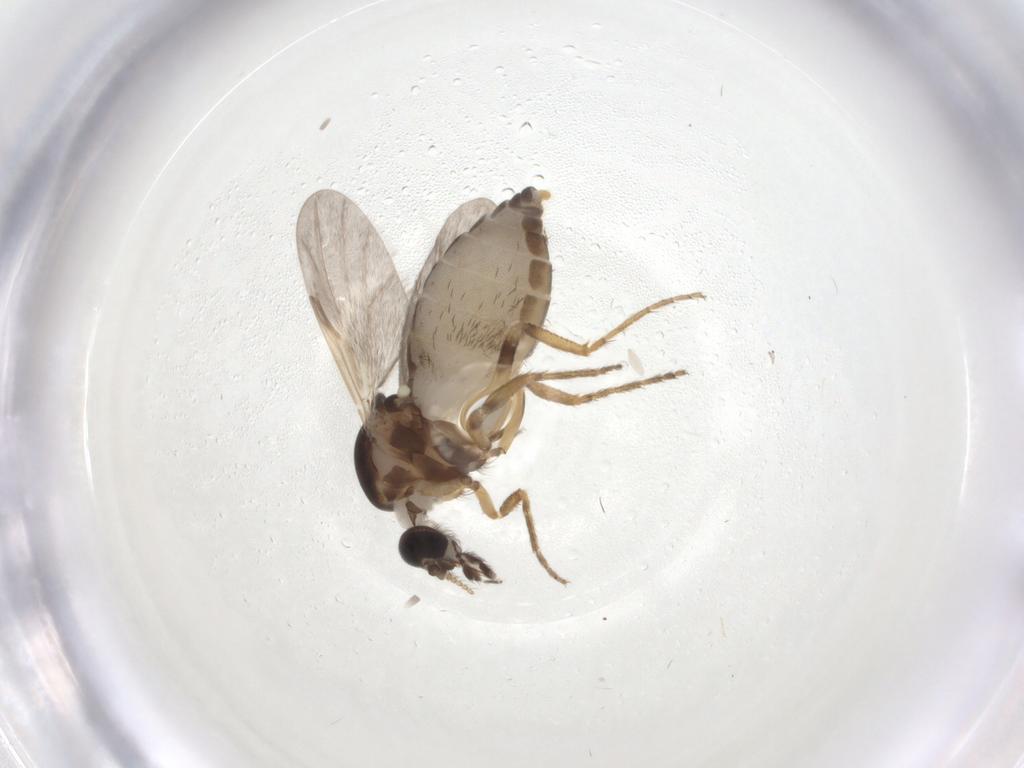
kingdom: Animalia
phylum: Arthropoda
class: Insecta
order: Diptera
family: Ceratopogonidae
